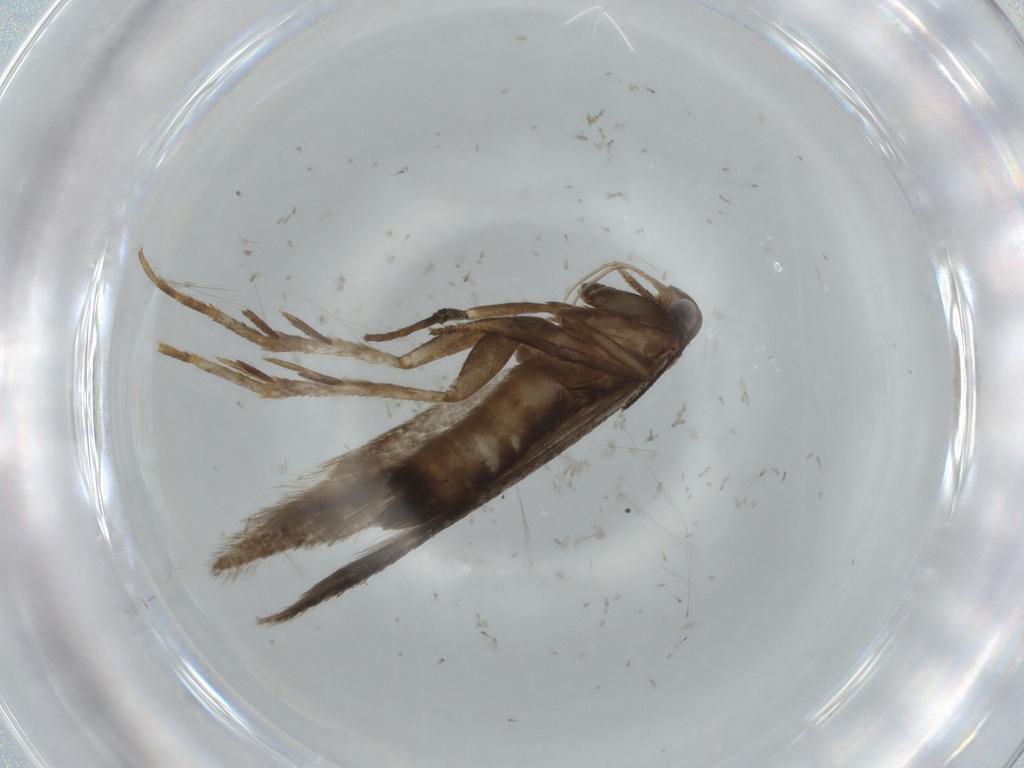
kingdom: Animalia
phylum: Arthropoda
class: Insecta
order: Lepidoptera
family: Gelechiidae
